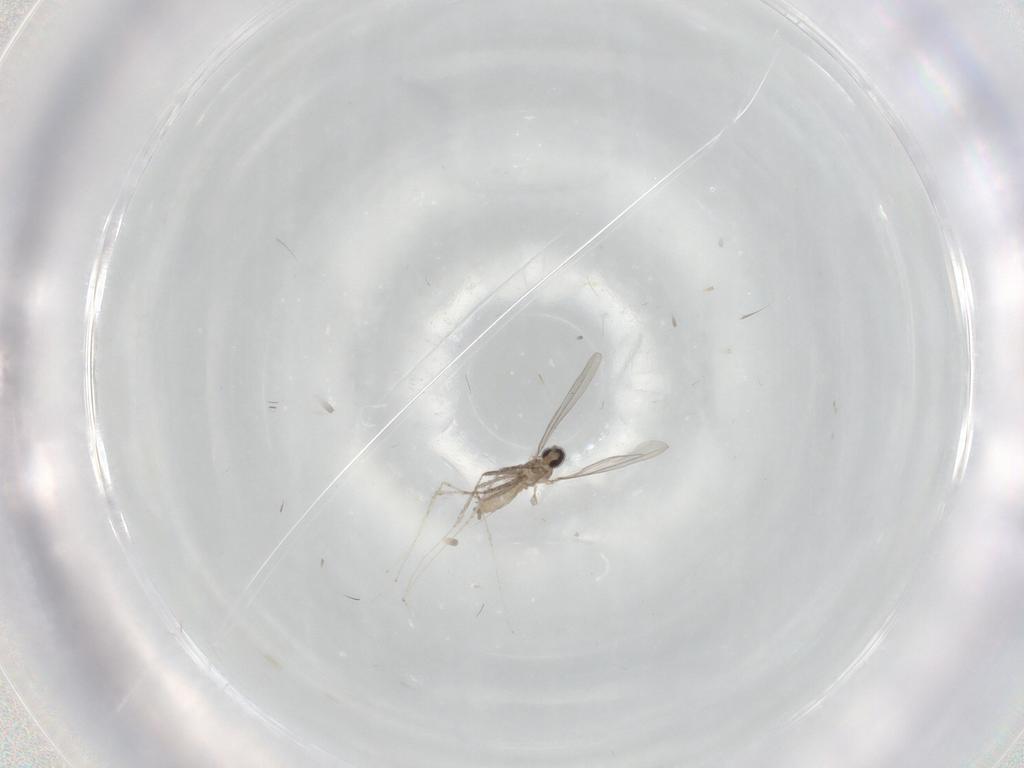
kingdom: Animalia
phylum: Arthropoda
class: Insecta
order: Diptera
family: Cecidomyiidae
